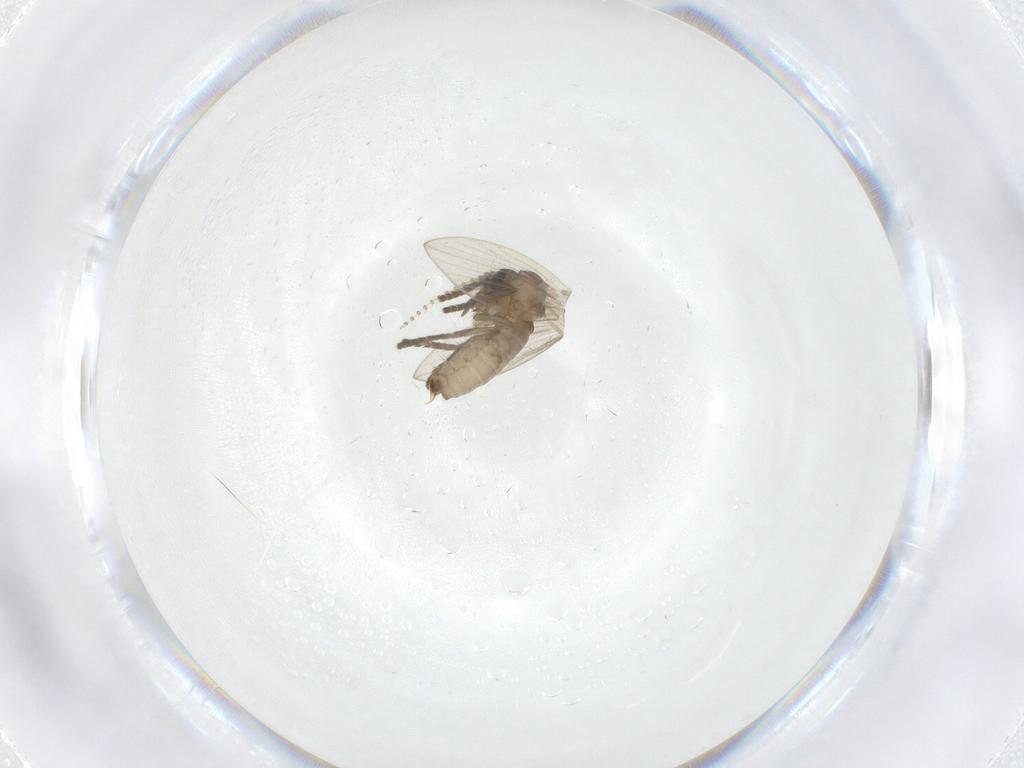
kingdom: Animalia
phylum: Arthropoda
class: Insecta
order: Diptera
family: Psychodidae
